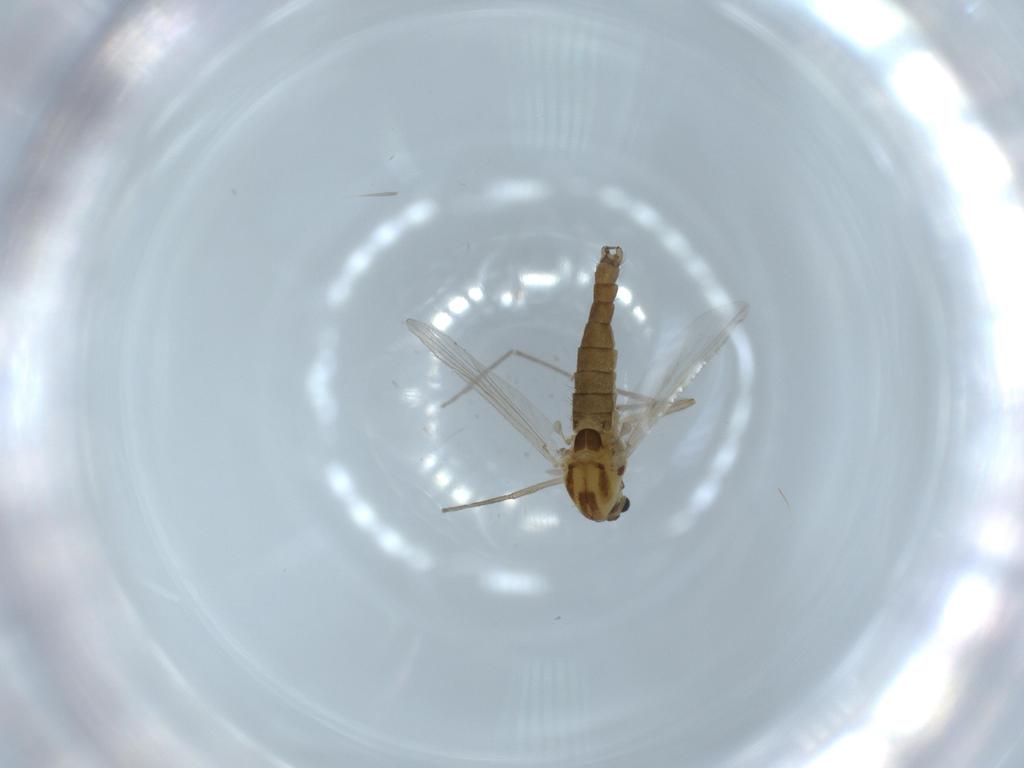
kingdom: Animalia
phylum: Arthropoda
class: Insecta
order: Diptera
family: Chironomidae
